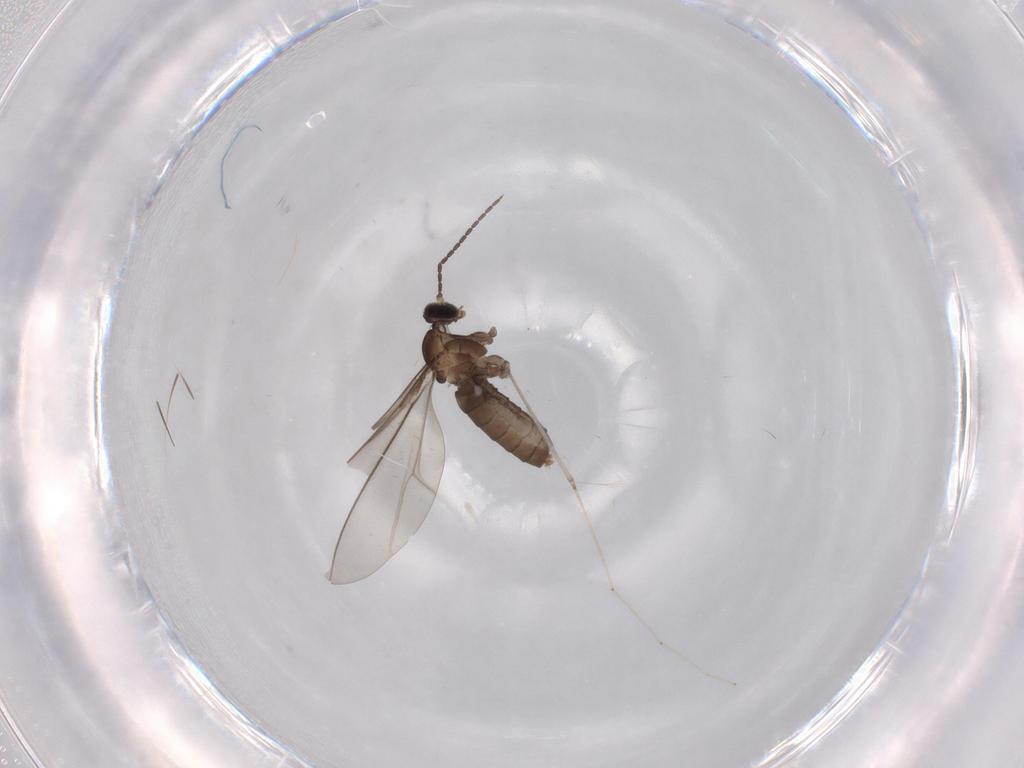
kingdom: Animalia
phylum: Arthropoda
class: Insecta
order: Diptera
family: Cecidomyiidae
